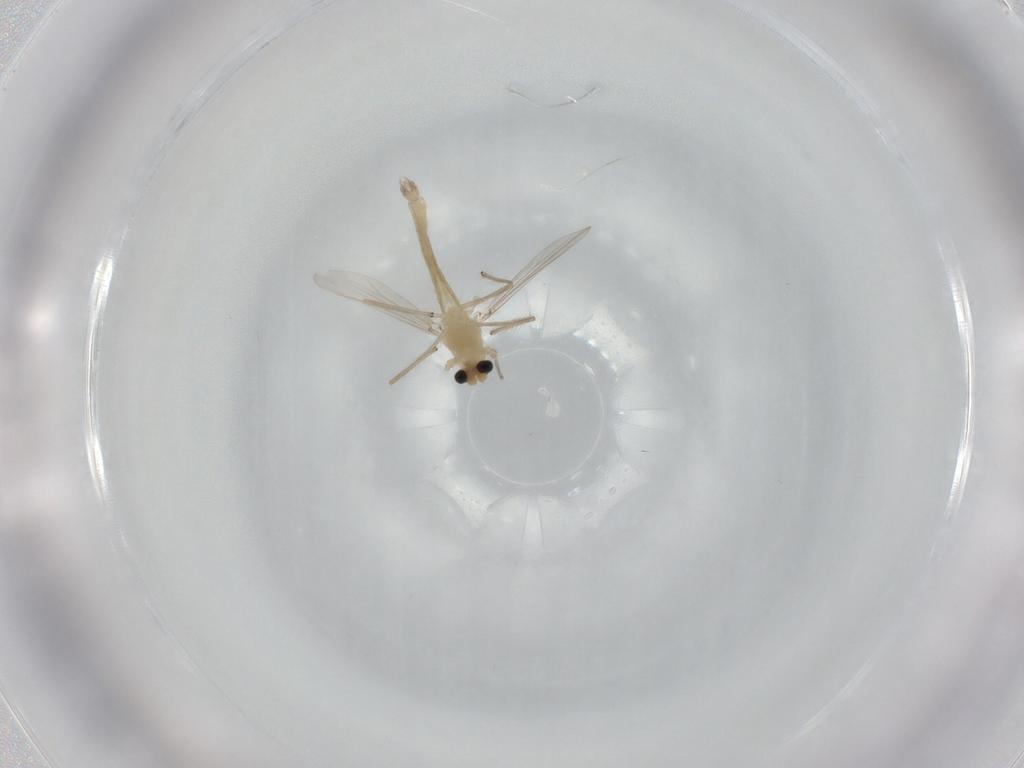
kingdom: Animalia
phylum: Arthropoda
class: Insecta
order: Diptera
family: Chironomidae
